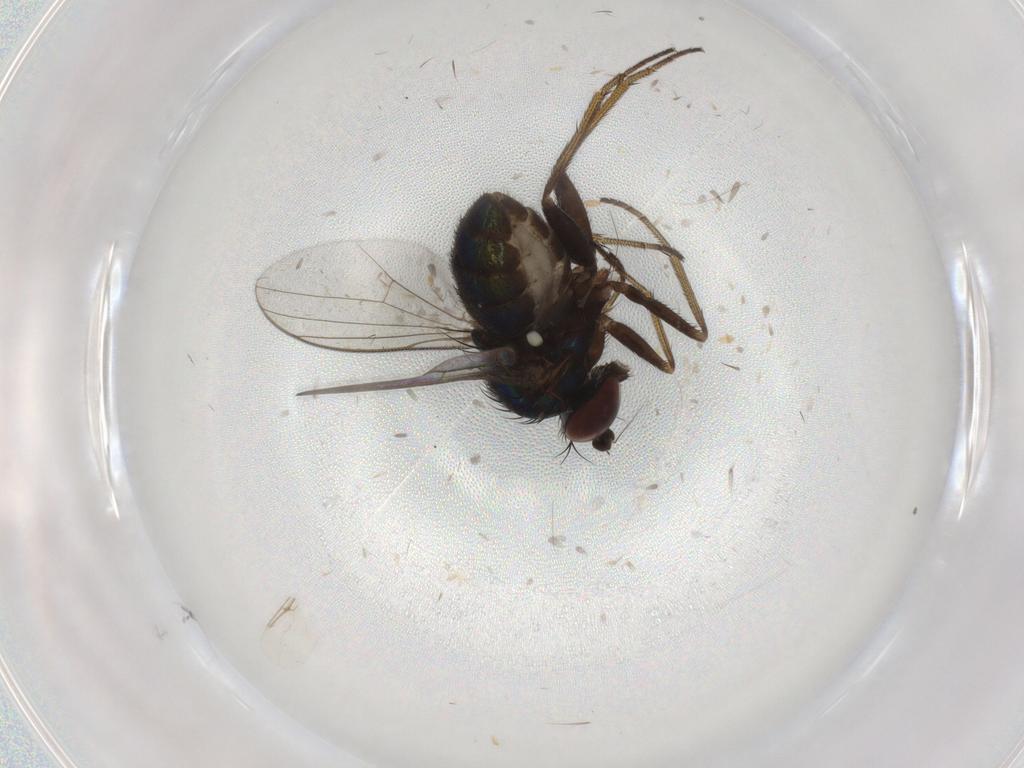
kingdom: Animalia
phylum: Arthropoda
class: Insecta
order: Diptera
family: Dolichopodidae
